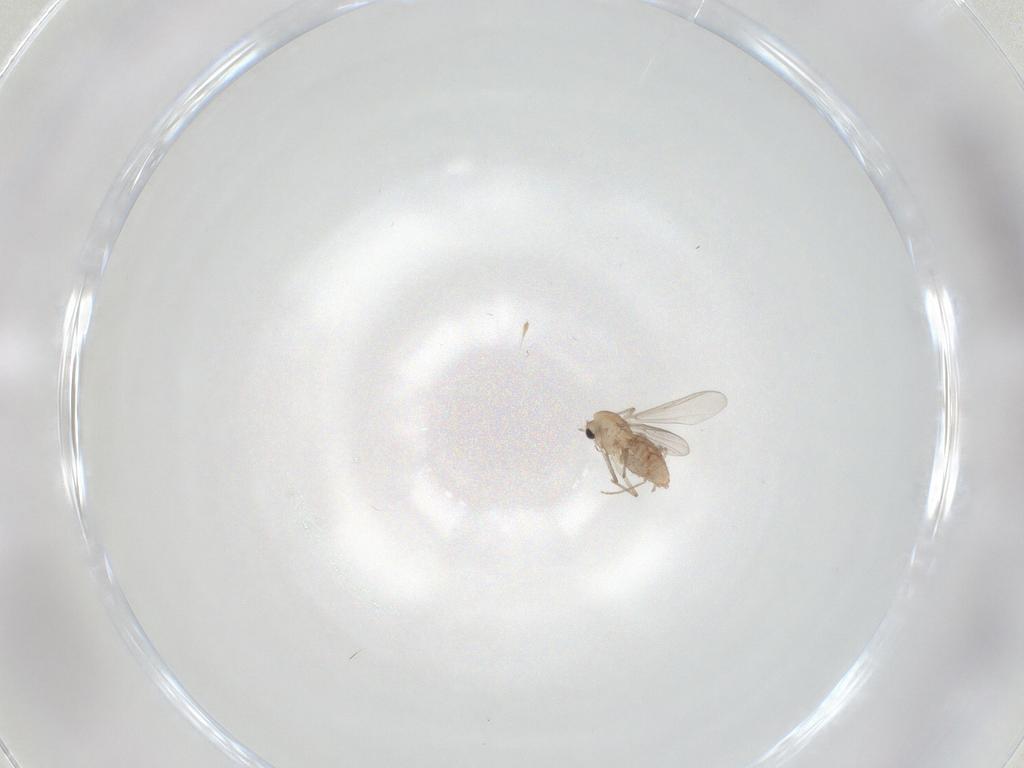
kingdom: Animalia
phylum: Arthropoda
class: Insecta
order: Diptera
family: Chironomidae
